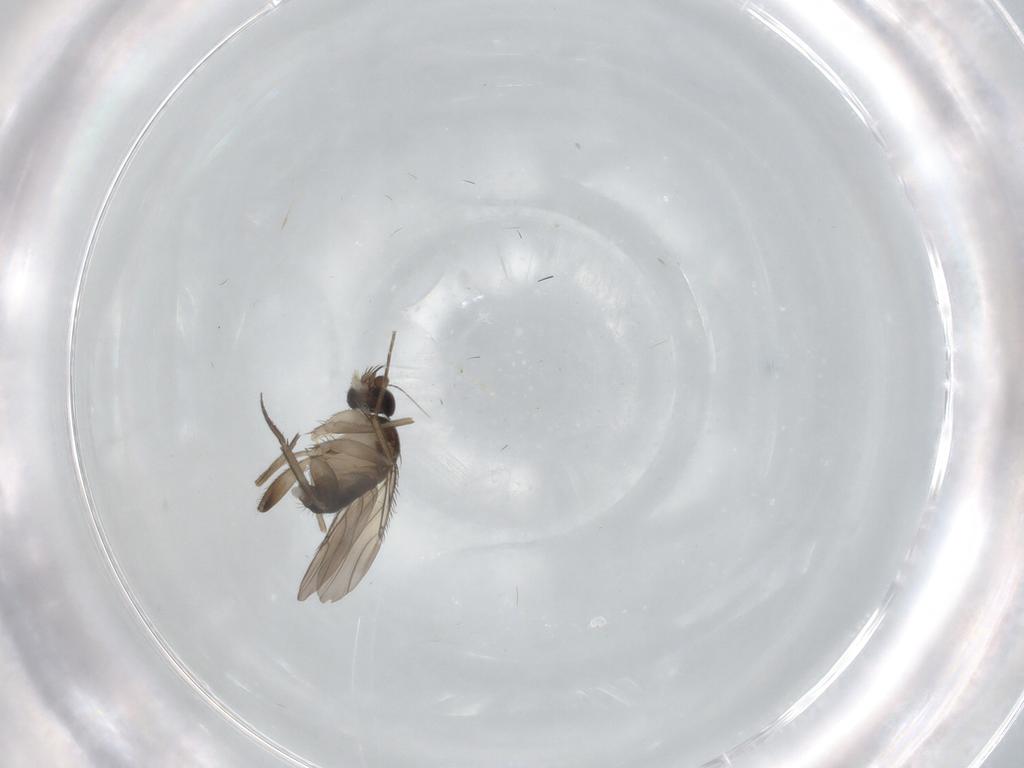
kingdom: Animalia
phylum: Arthropoda
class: Insecta
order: Diptera
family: Phoridae
